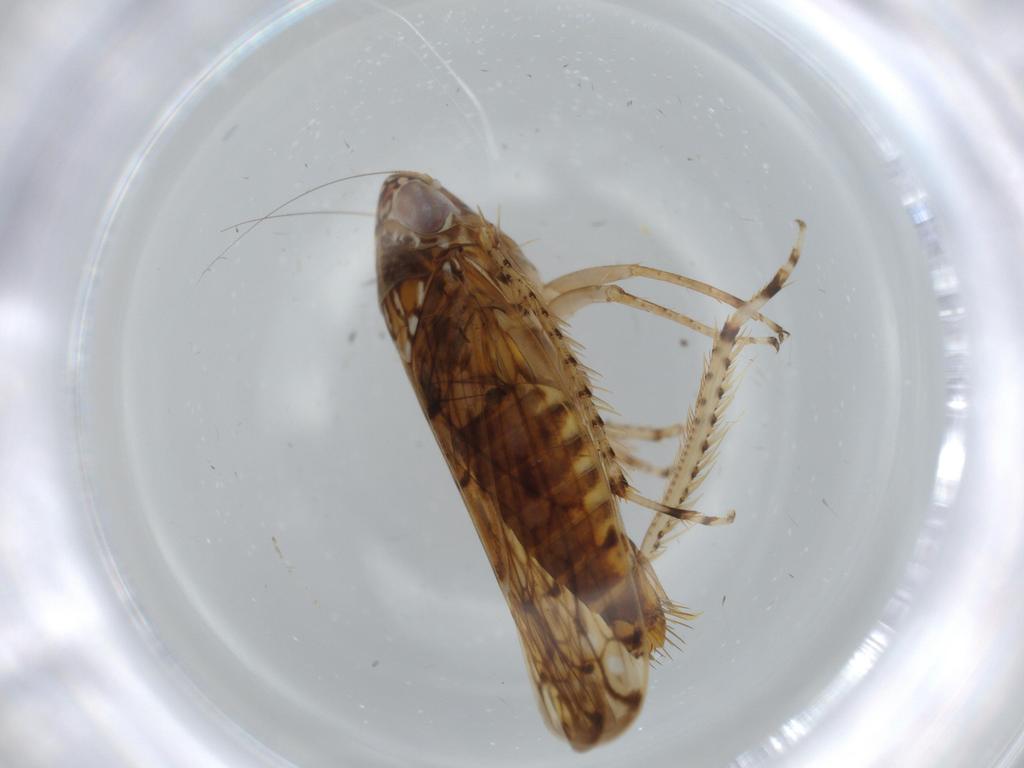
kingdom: Animalia
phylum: Arthropoda
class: Insecta
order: Hemiptera
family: Cicadellidae
